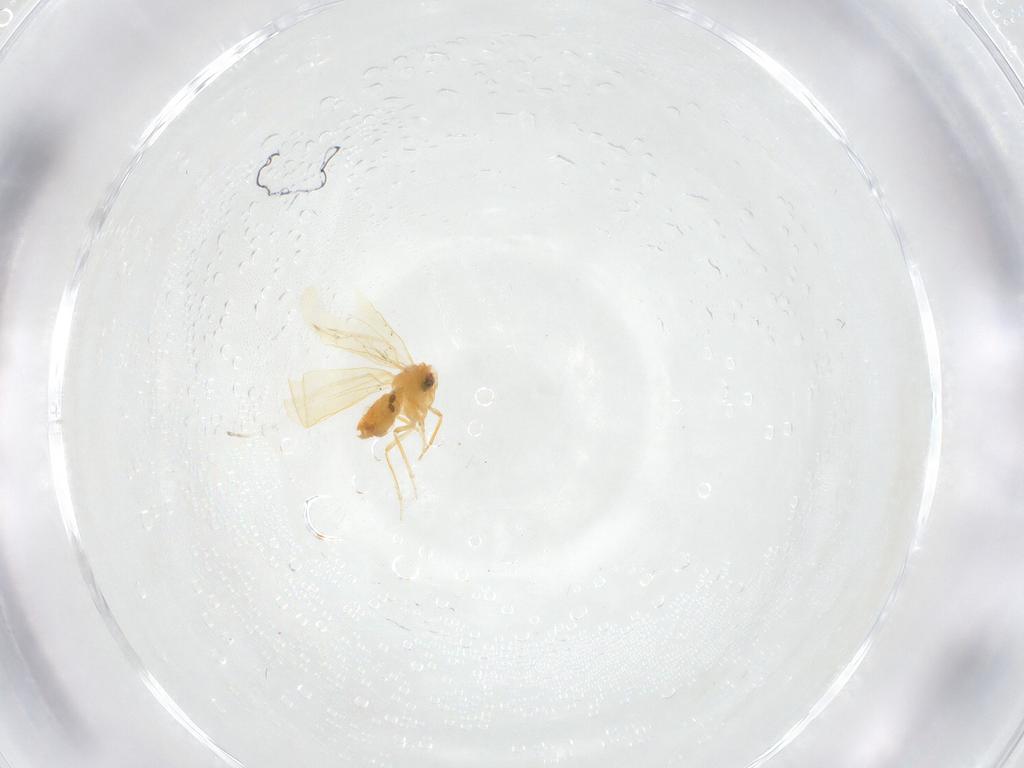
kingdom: Animalia
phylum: Arthropoda
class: Insecta
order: Hemiptera
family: Aleyrodidae
